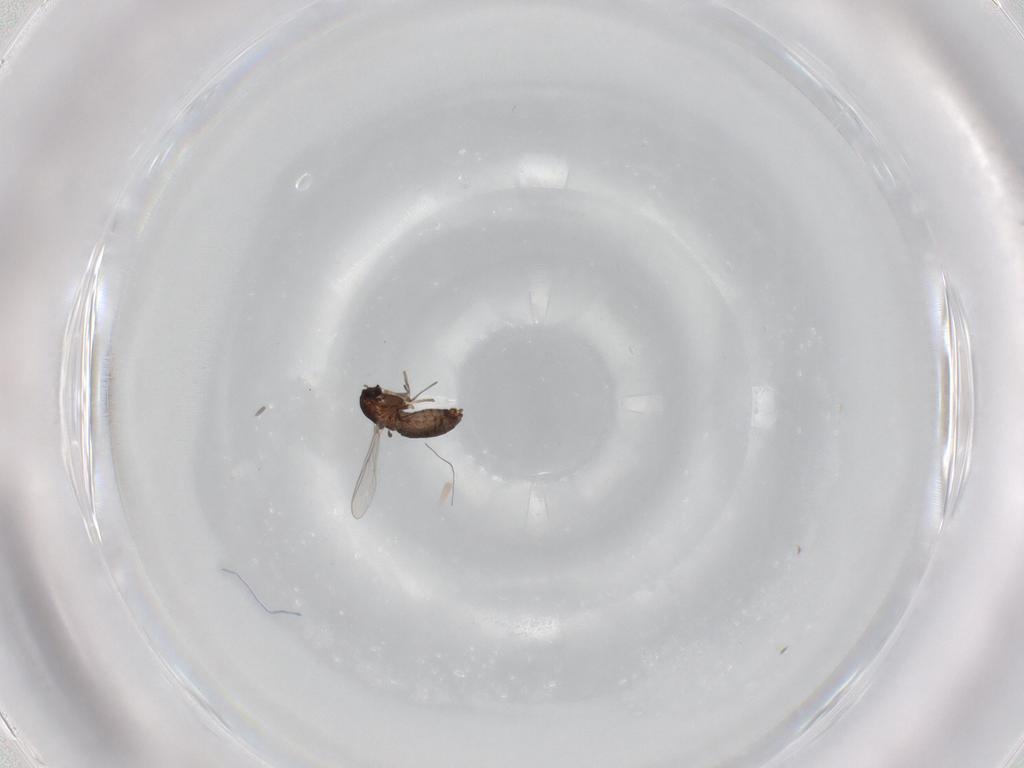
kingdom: Animalia
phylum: Arthropoda
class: Insecta
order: Diptera
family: Chironomidae
